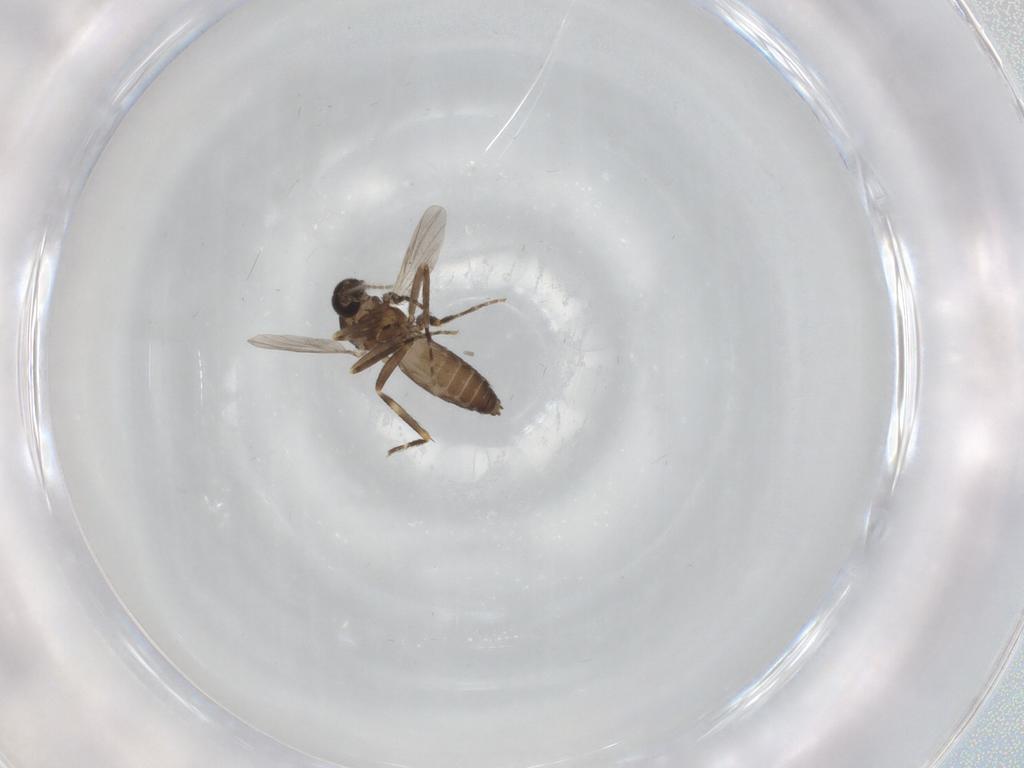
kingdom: Animalia
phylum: Arthropoda
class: Insecta
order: Diptera
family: Ceratopogonidae
